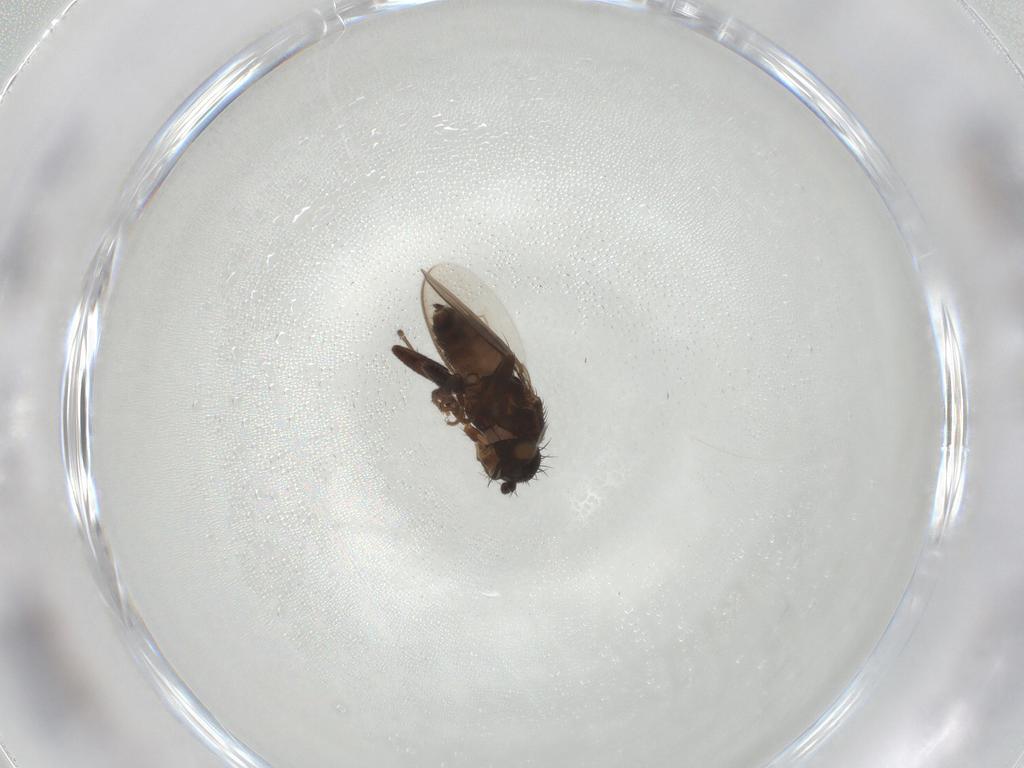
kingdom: Animalia
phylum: Arthropoda
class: Insecta
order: Diptera
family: Sphaeroceridae
